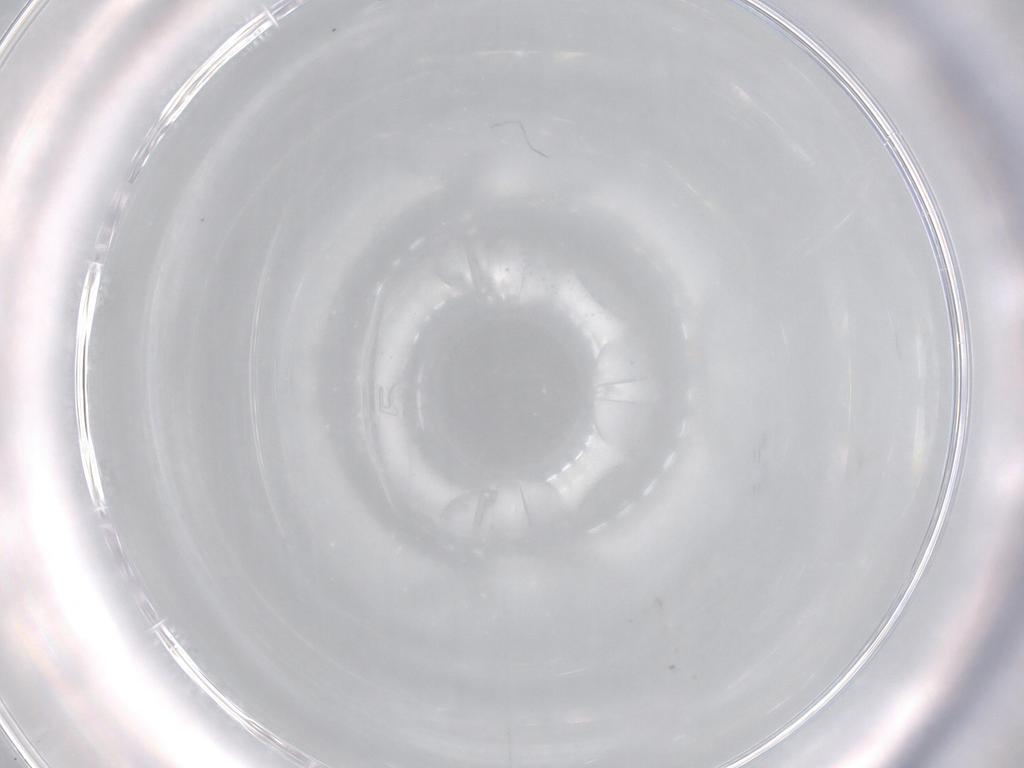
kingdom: Animalia
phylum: Arthropoda
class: Insecta
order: Diptera
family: Cecidomyiidae
